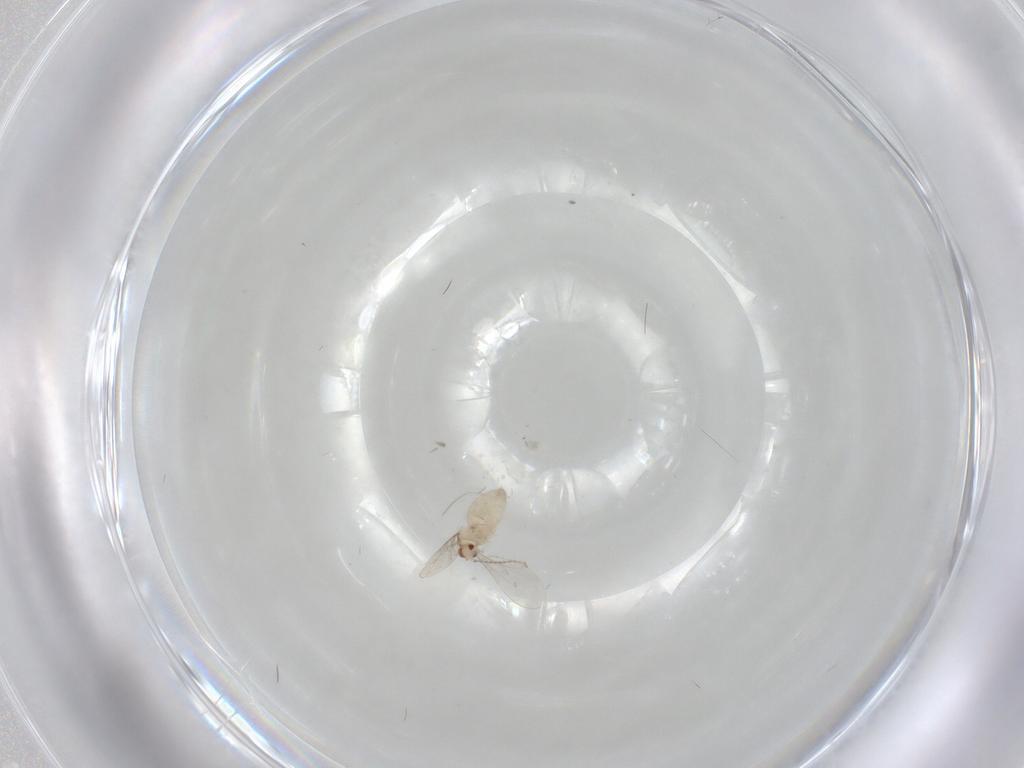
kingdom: Animalia
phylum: Arthropoda
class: Insecta
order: Diptera
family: Cecidomyiidae
